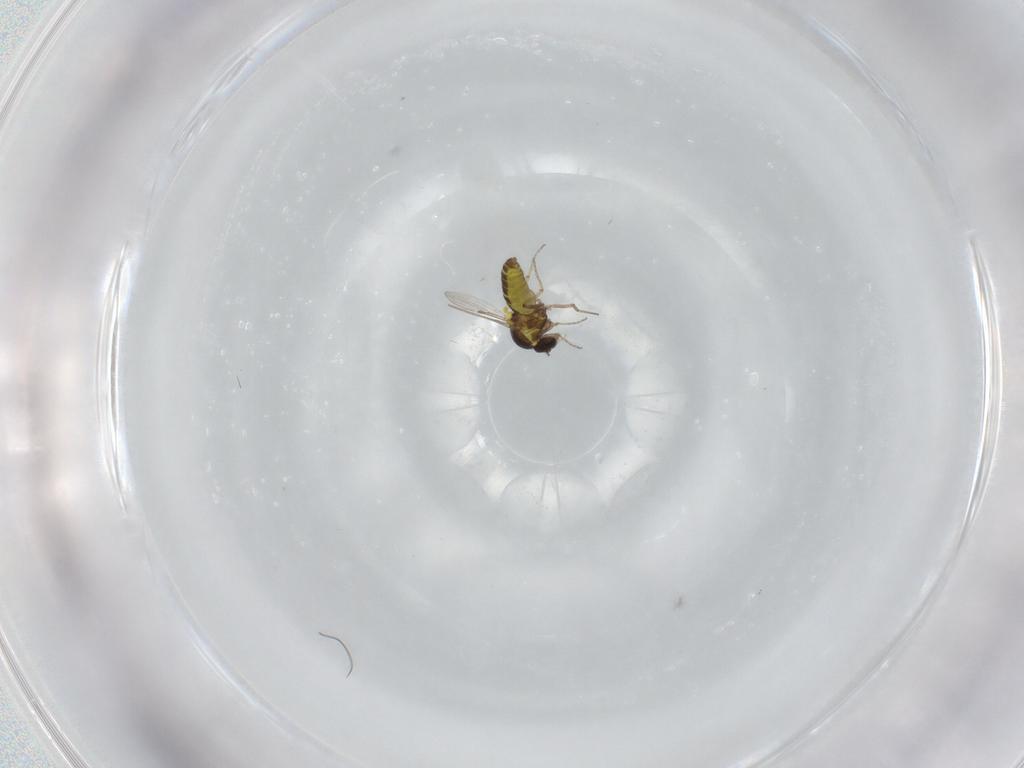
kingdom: Animalia
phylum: Arthropoda
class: Insecta
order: Diptera
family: Ceratopogonidae
